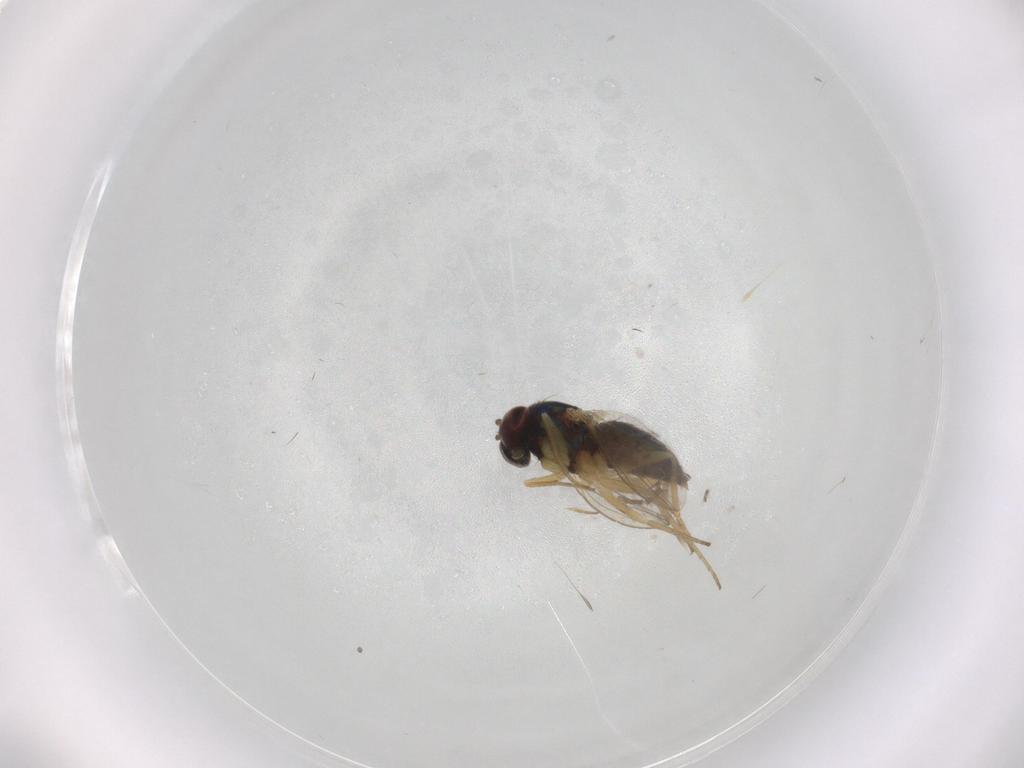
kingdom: Animalia
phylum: Arthropoda
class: Insecta
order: Diptera
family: Dolichopodidae
